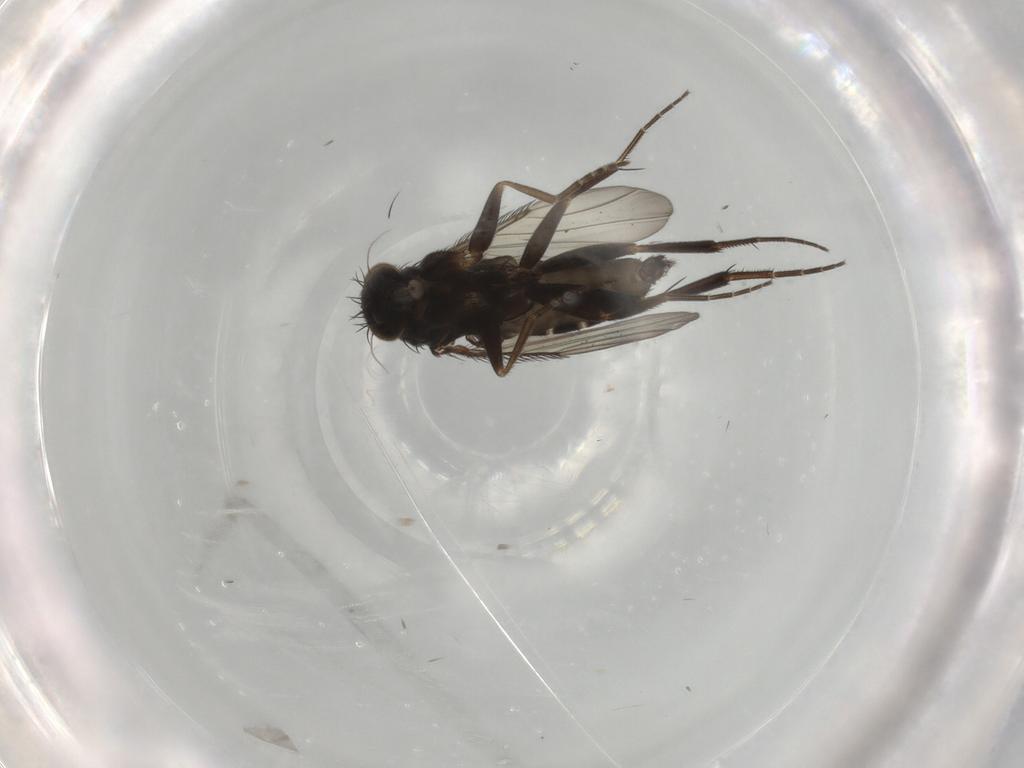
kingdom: Animalia
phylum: Arthropoda
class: Insecta
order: Diptera
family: Phoridae
